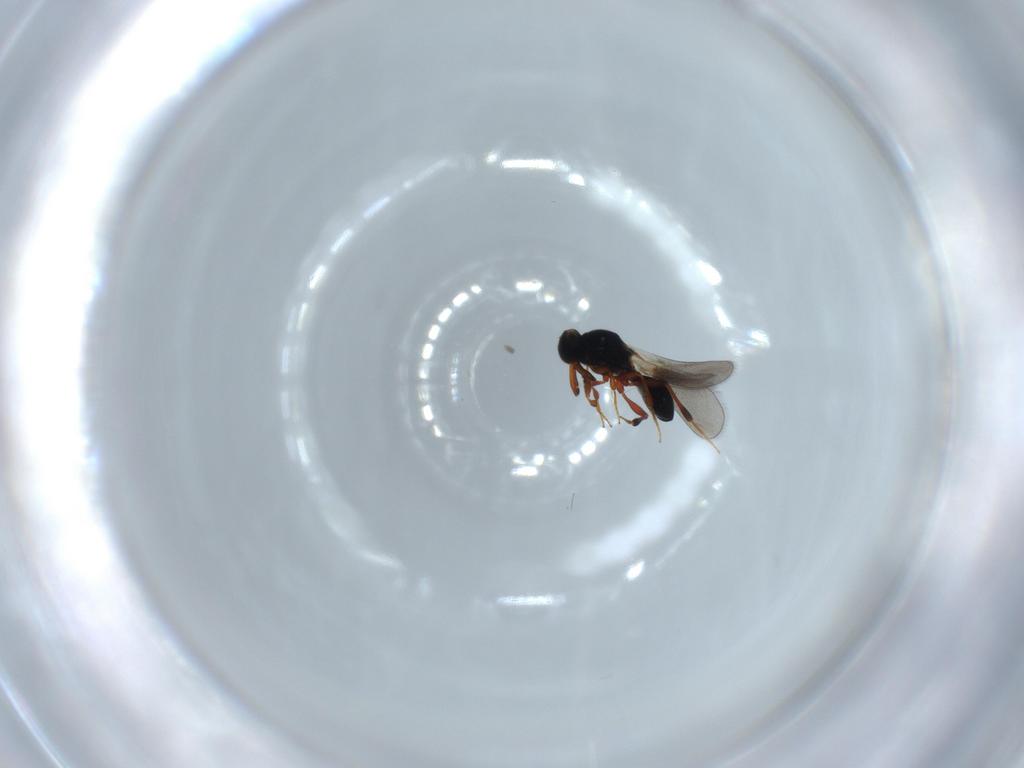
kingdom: Animalia
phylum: Arthropoda
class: Insecta
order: Hymenoptera
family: Platygastridae
